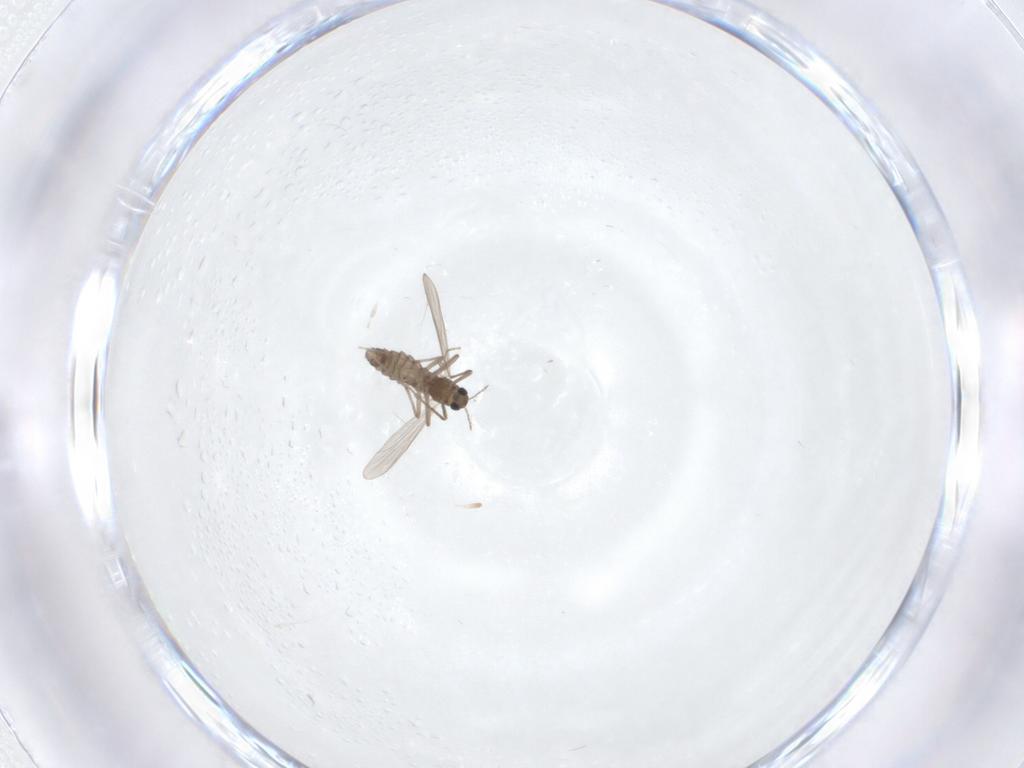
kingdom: Animalia
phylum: Arthropoda
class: Insecta
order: Diptera
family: Chironomidae
